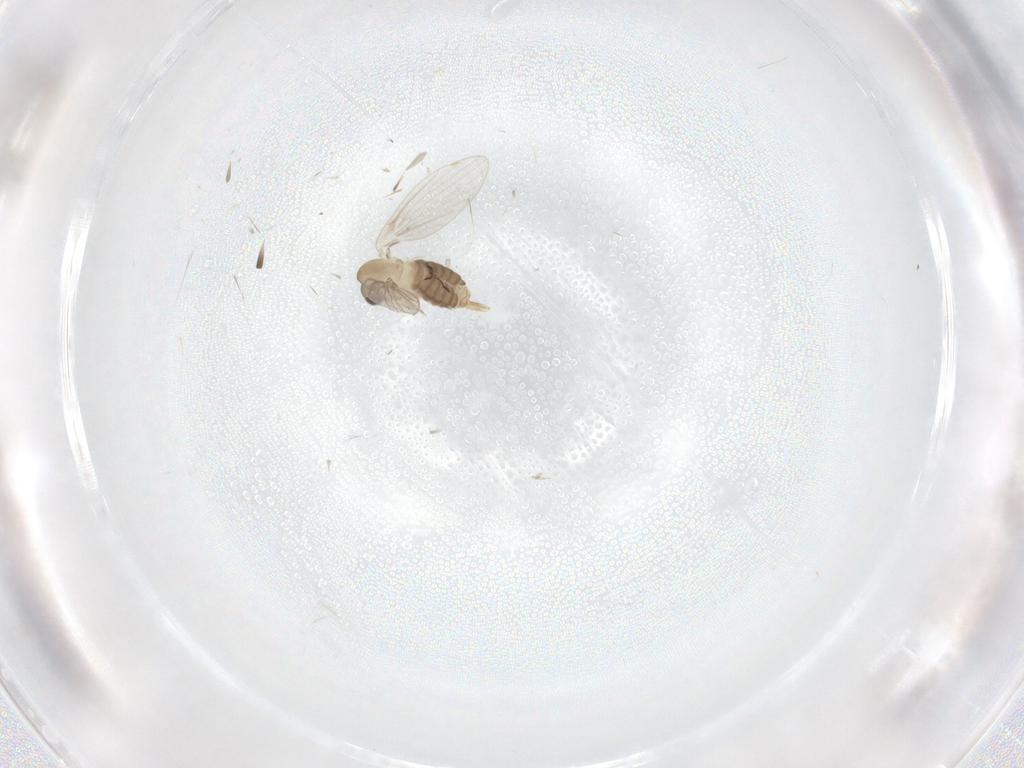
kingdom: Animalia
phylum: Arthropoda
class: Insecta
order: Diptera
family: Psychodidae
